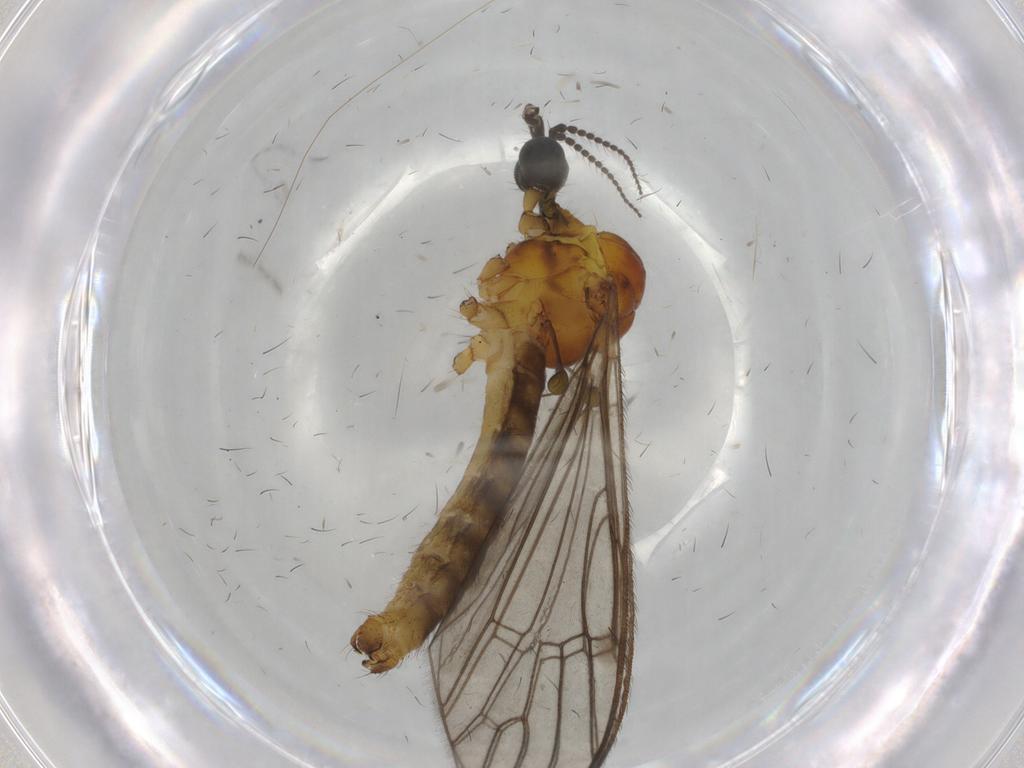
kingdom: Animalia
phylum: Arthropoda
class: Insecta
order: Diptera
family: Limoniidae
